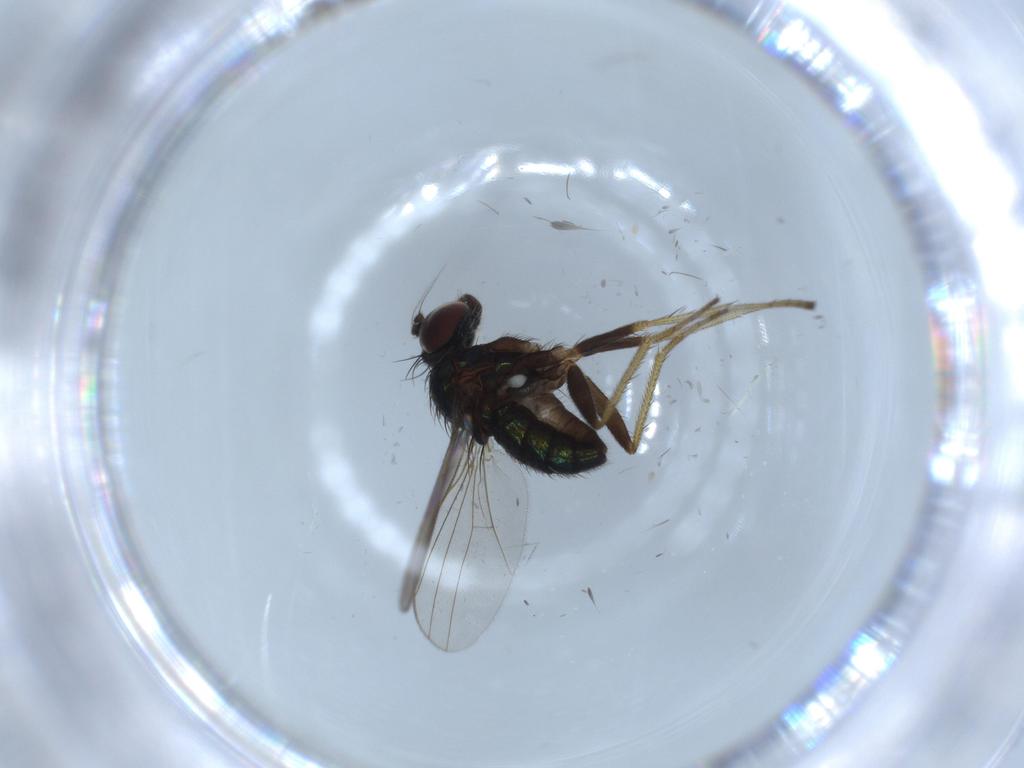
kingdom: Animalia
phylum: Arthropoda
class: Insecta
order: Diptera
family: Dolichopodidae
